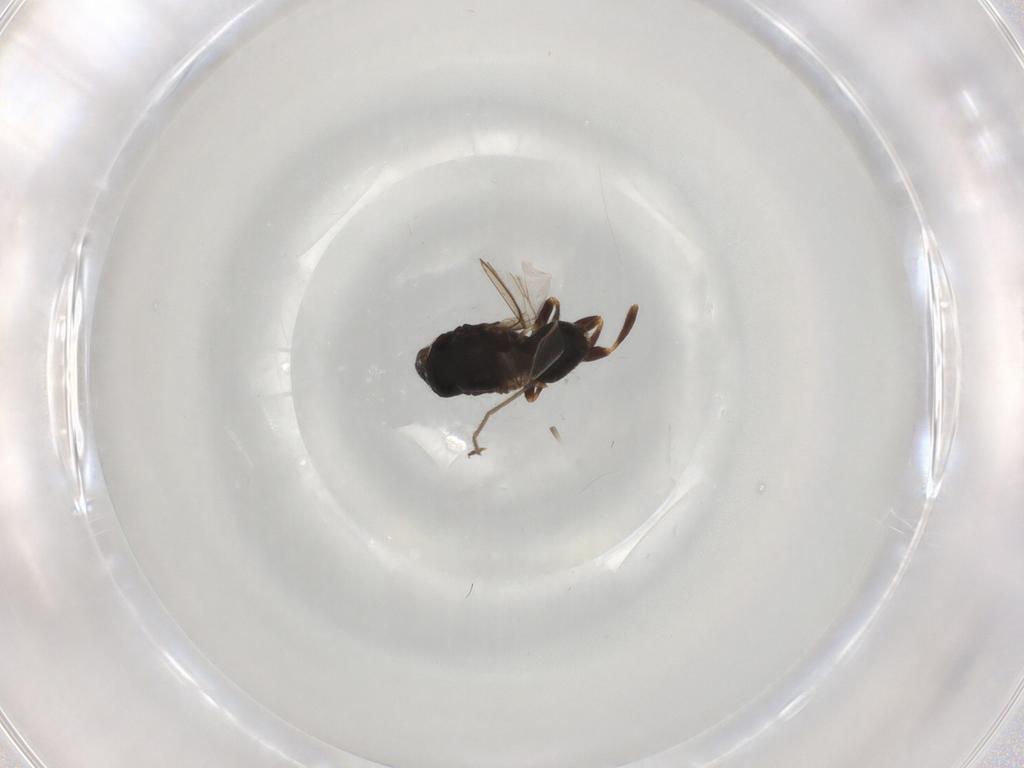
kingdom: Animalia
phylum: Arthropoda
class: Insecta
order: Diptera
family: Chloropidae
